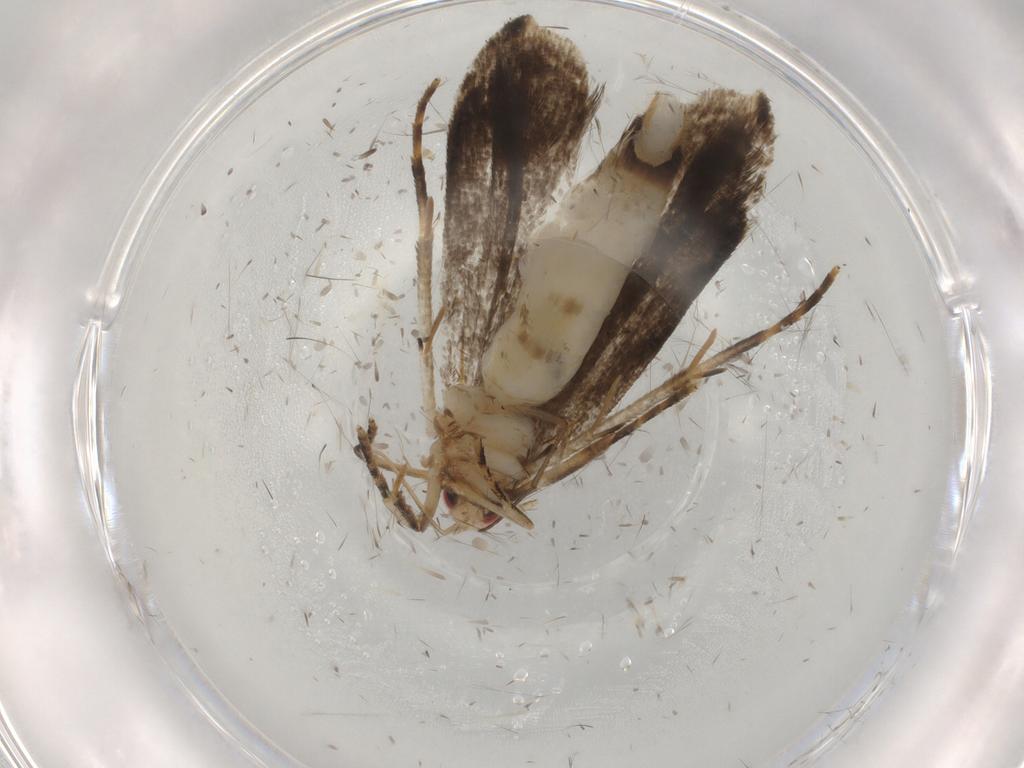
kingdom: Animalia
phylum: Arthropoda
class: Insecta
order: Lepidoptera
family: Gelechiidae
